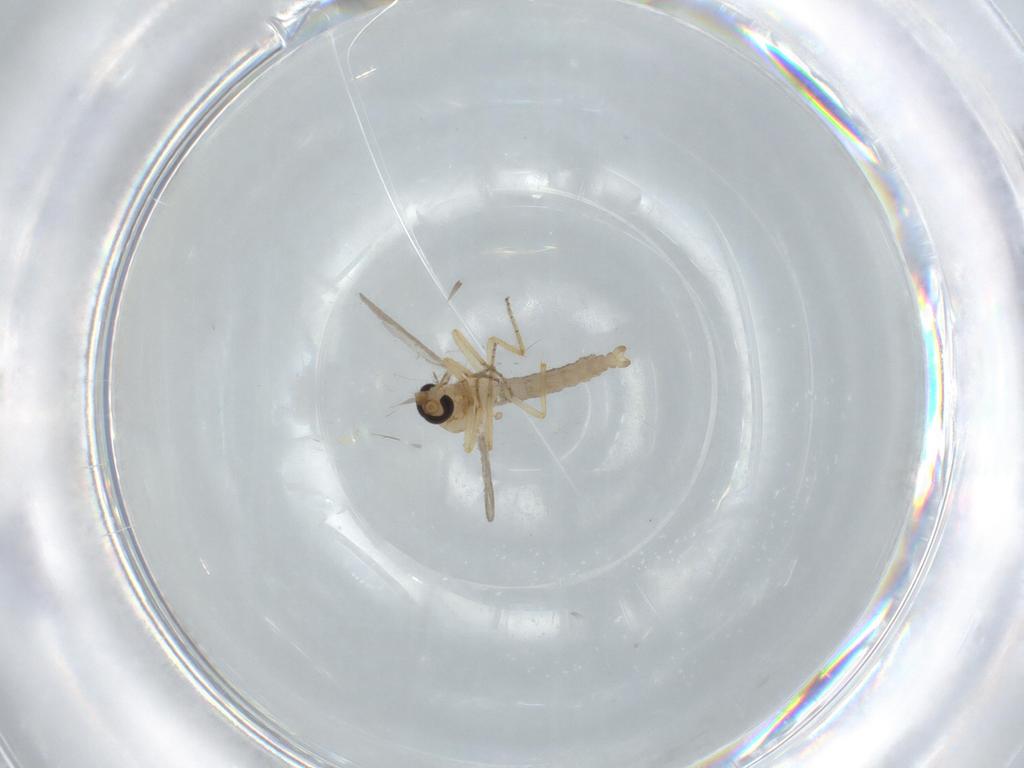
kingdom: Animalia
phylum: Arthropoda
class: Insecta
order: Diptera
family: Ceratopogonidae
